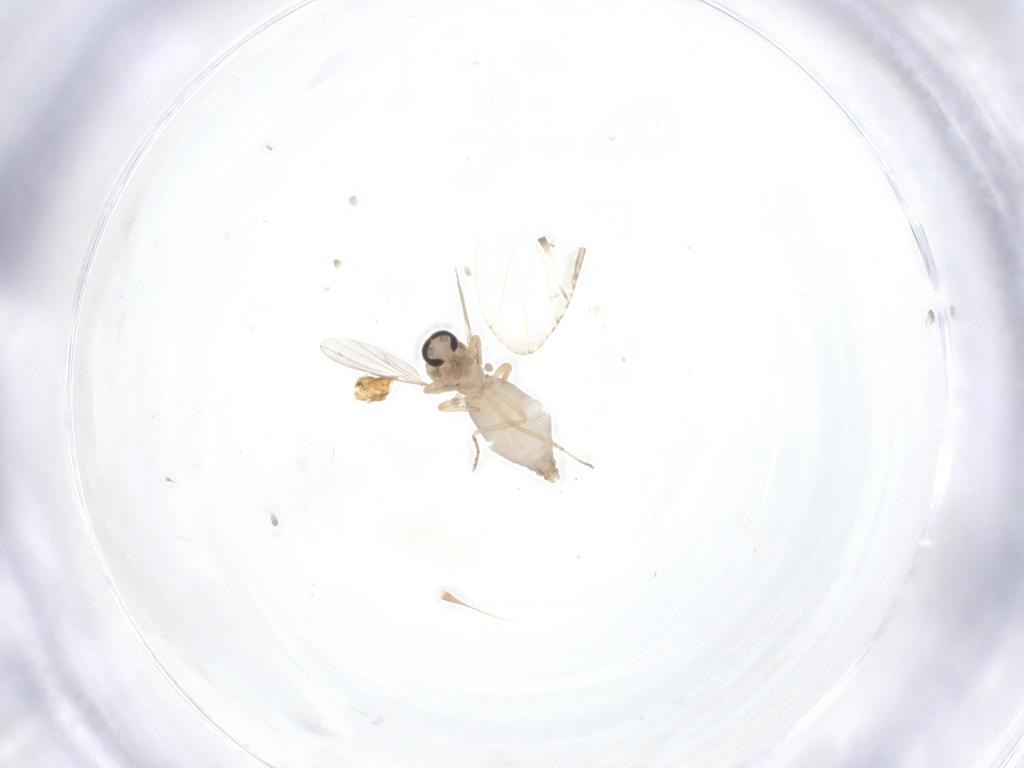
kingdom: Animalia
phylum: Arthropoda
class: Insecta
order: Diptera
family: Ceratopogonidae
